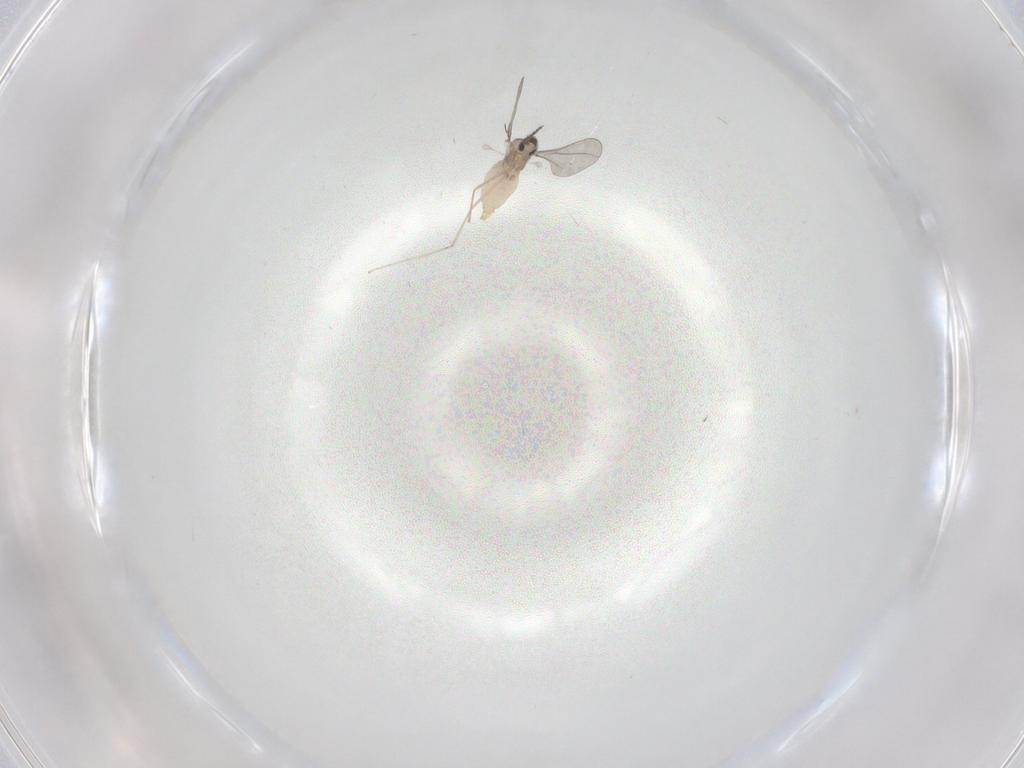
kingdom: Animalia
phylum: Arthropoda
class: Insecta
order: Diptera
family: Cecidomyiidae
